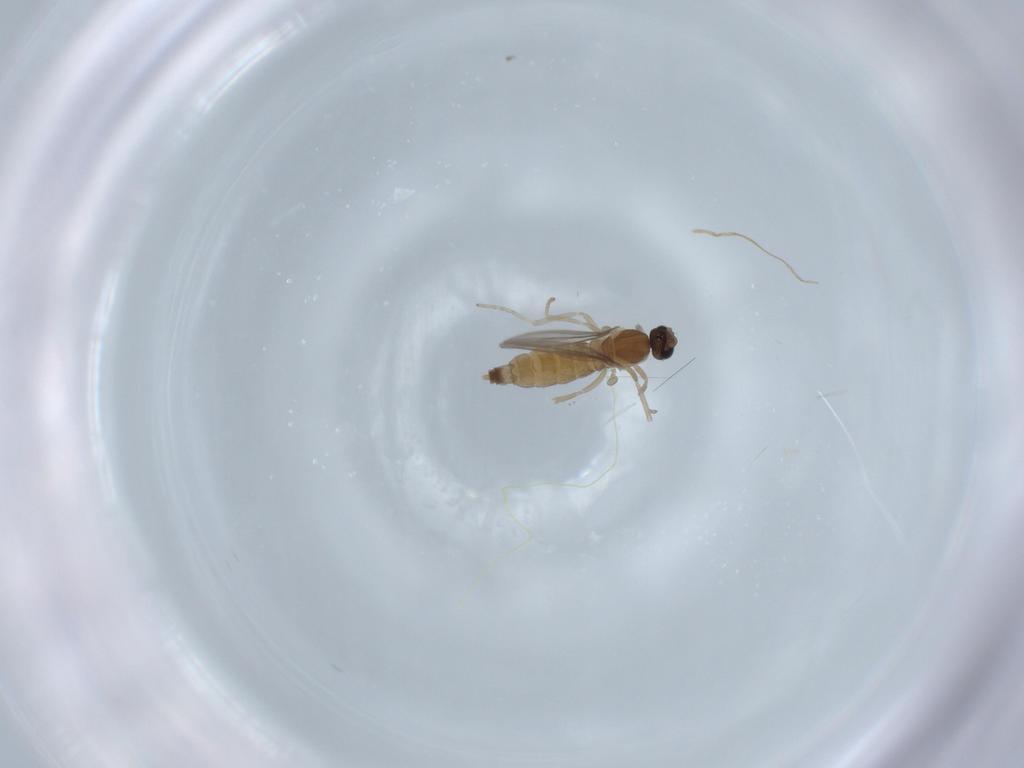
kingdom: Animalia
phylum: Arthropoda
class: Insecta
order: Diptera
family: Cecidomyiidae
